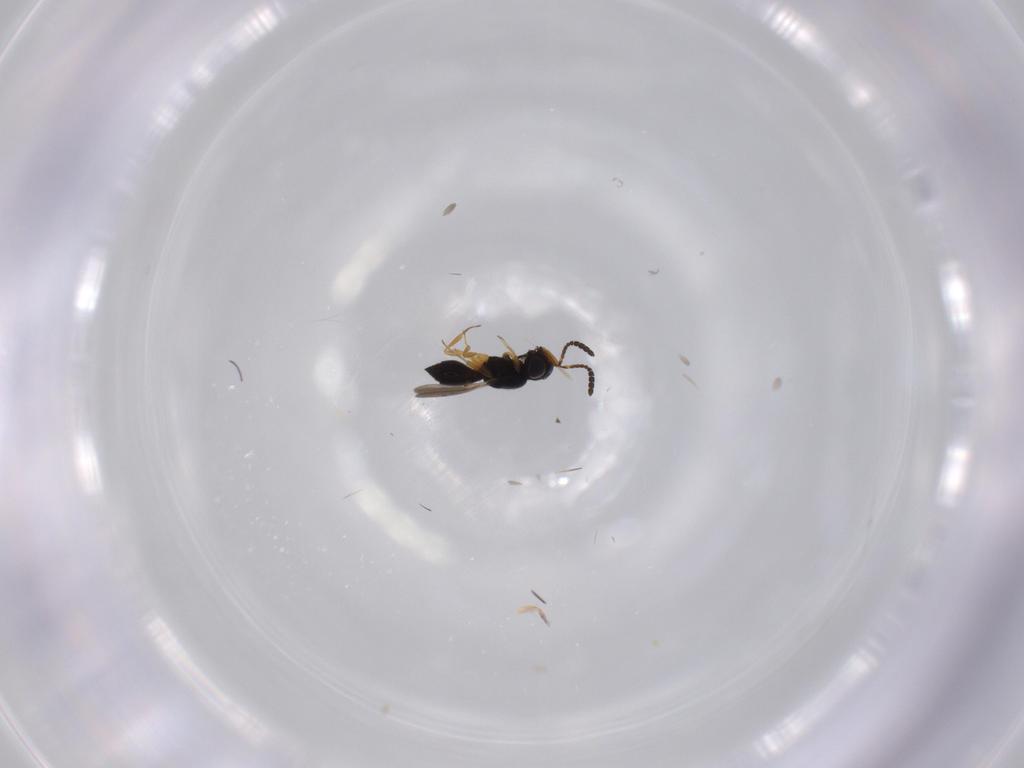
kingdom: Animalia
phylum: Arthropoda
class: Insecta
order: Hymenoptera
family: Scelionidae
